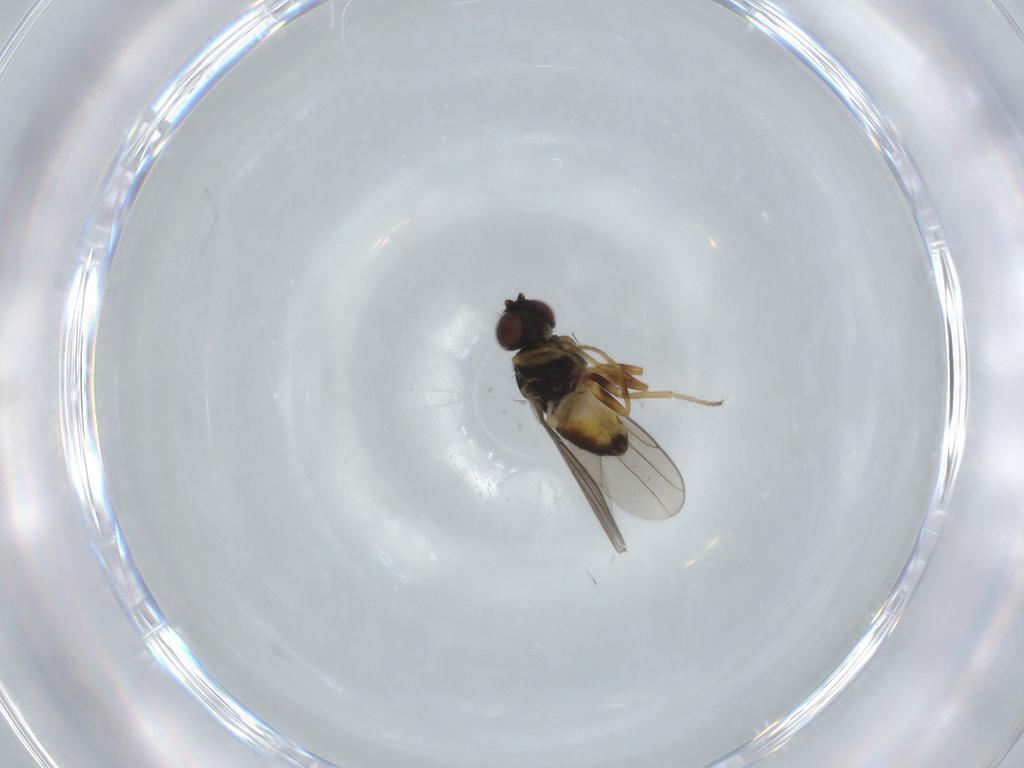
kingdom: Animalia
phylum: Arthropoda
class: Insecta
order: Diptera
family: Chloropidae
